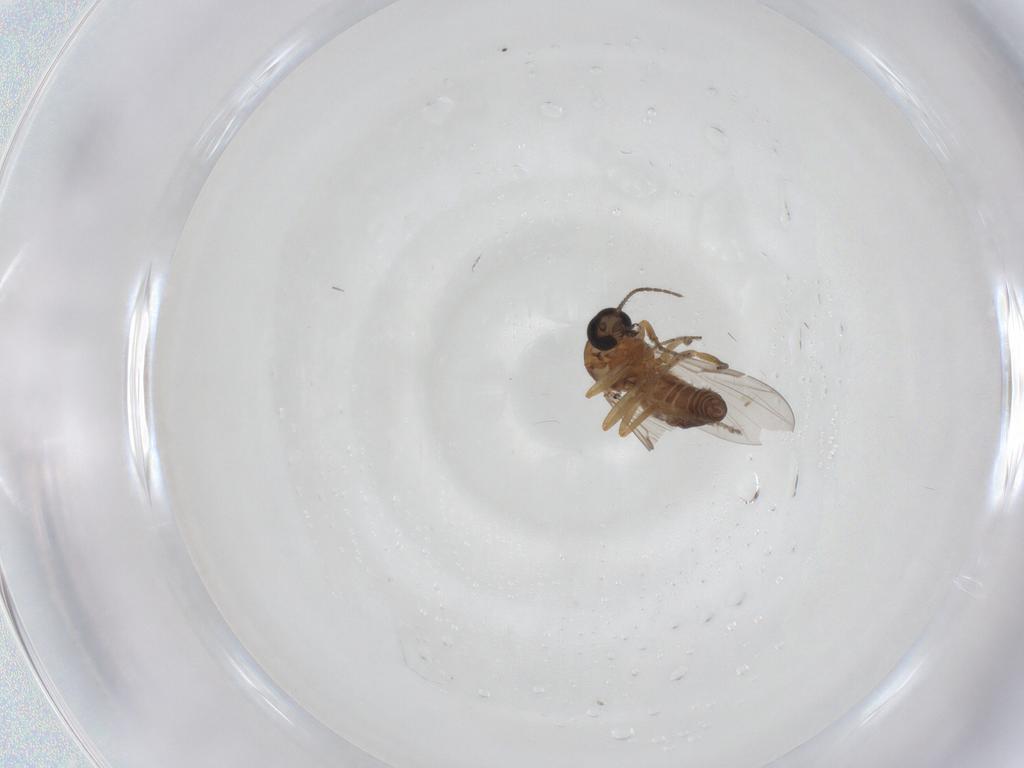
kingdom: Animalia
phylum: Arthropoda
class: Insecta
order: Diptera
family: Ceratopogonidae
